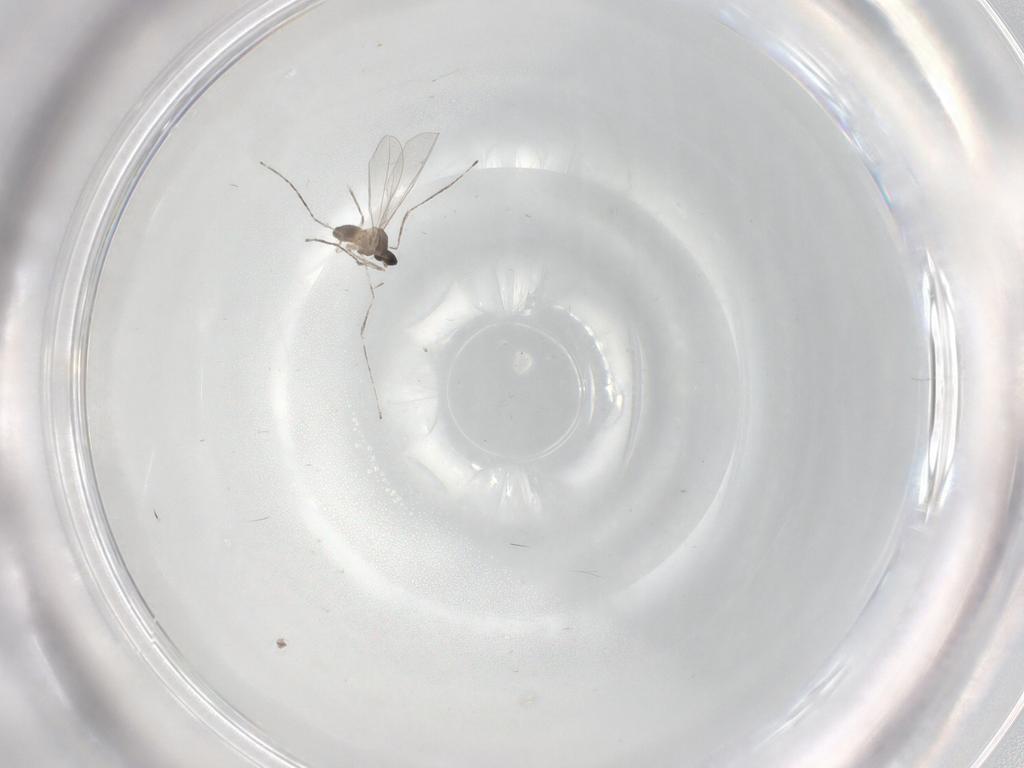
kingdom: Animalia
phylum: Arthropoda
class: Insecta
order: Diptera
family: Cecidomyiidae
